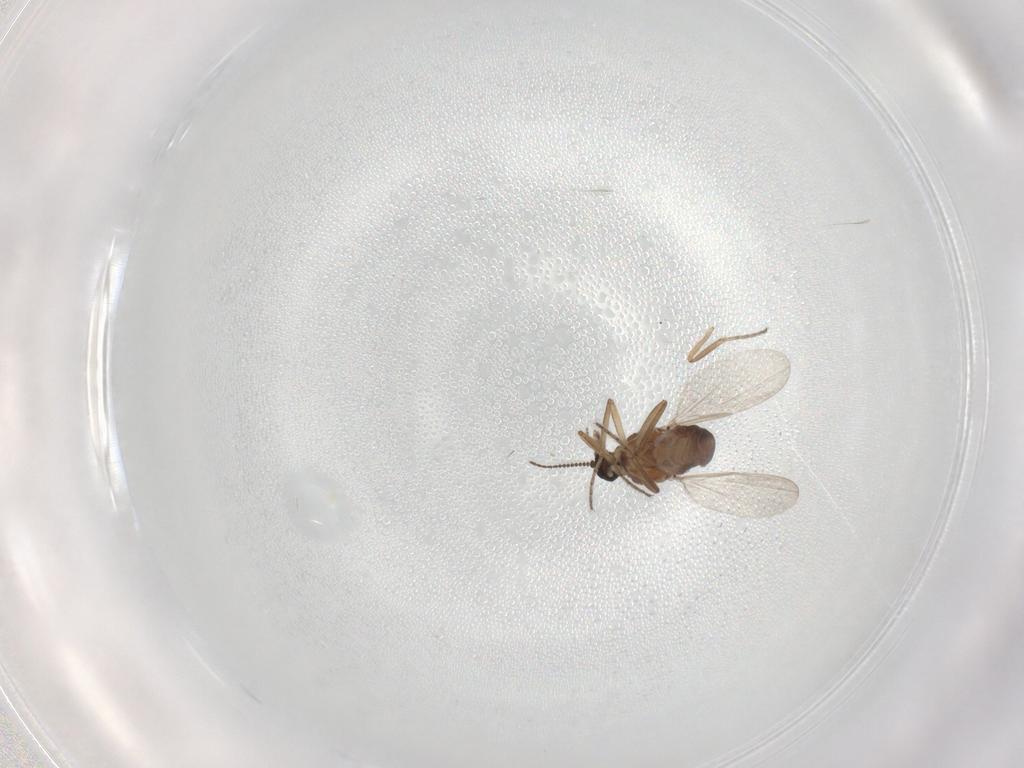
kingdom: Animalia
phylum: Arthropoda
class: Insecta
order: Diptera
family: Ceratopogonidae
